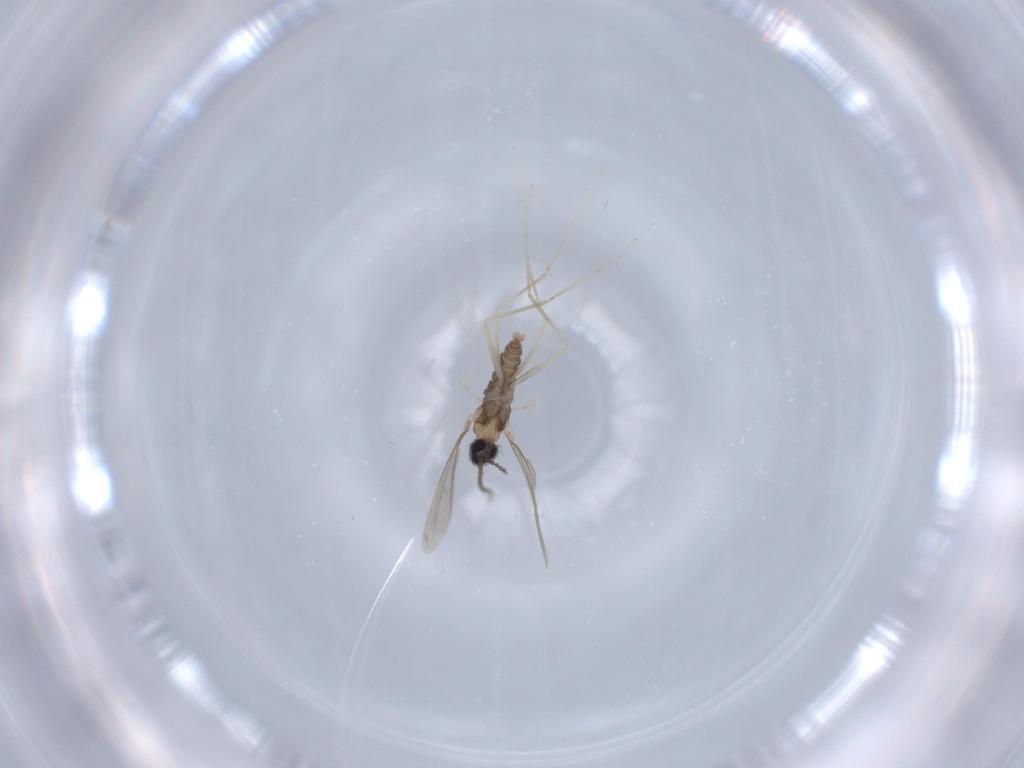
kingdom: Animalia
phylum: Arthropoda
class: Insecta
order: Diptera
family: Cecidomyiidae
